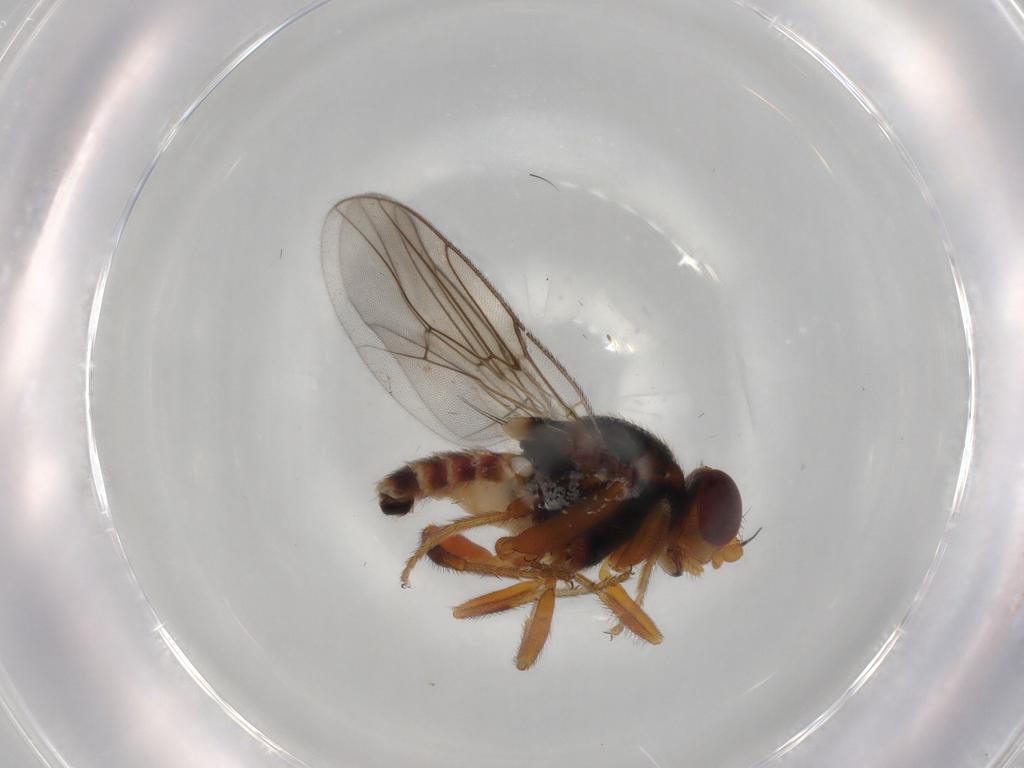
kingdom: Animalia
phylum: Arthropoda
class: Insecta
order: Diptera
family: Chloropidae
